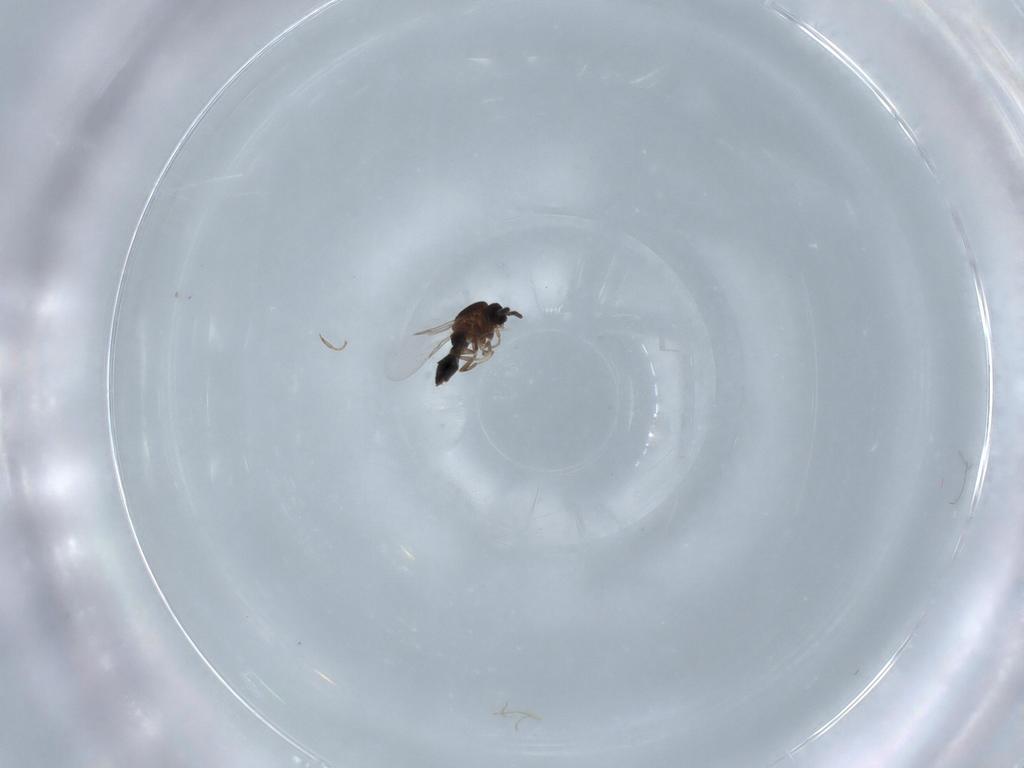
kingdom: Animalia
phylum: Arthropoda
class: Insecta
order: Diptera
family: Scatopsidae
